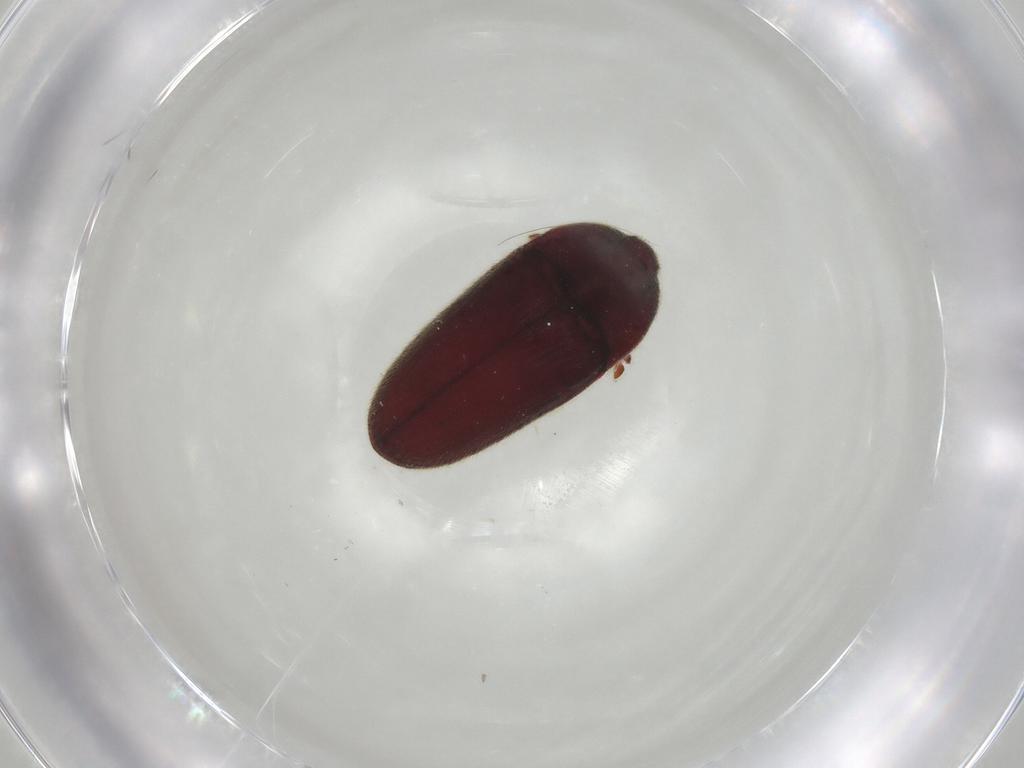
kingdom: Animalia
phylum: Arthropoda
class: Insecta
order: Coleoptera
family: Throscidae
